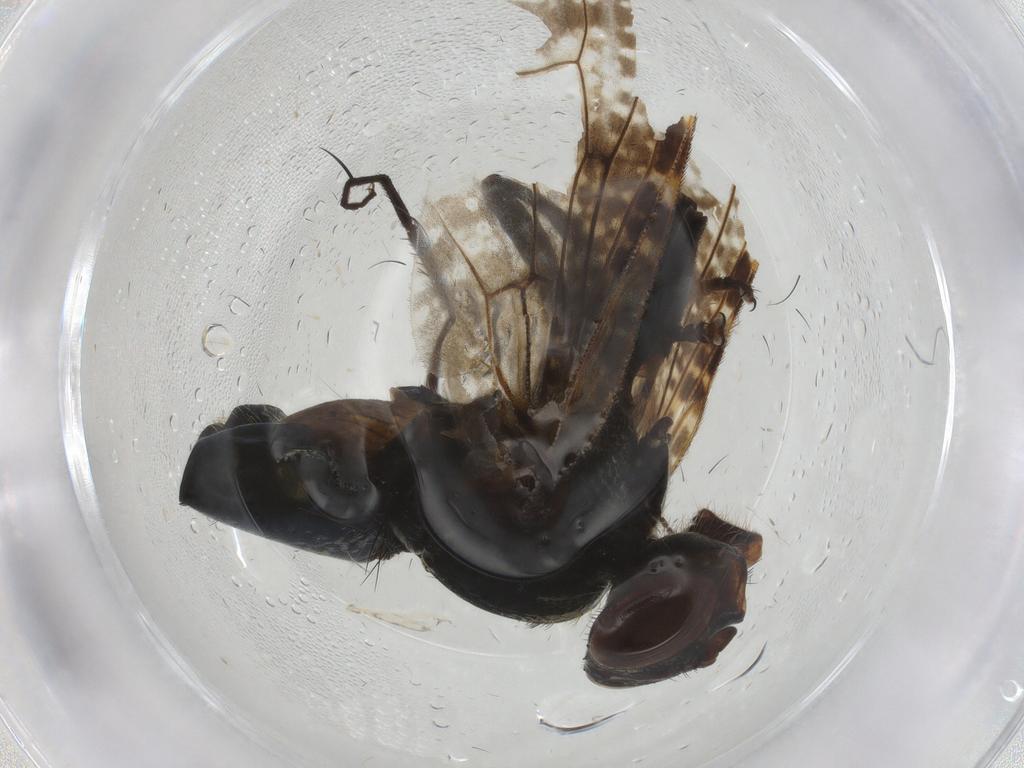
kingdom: Animalia
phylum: Arthropoda
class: Insecta
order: Diptera
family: Platystomatidae
